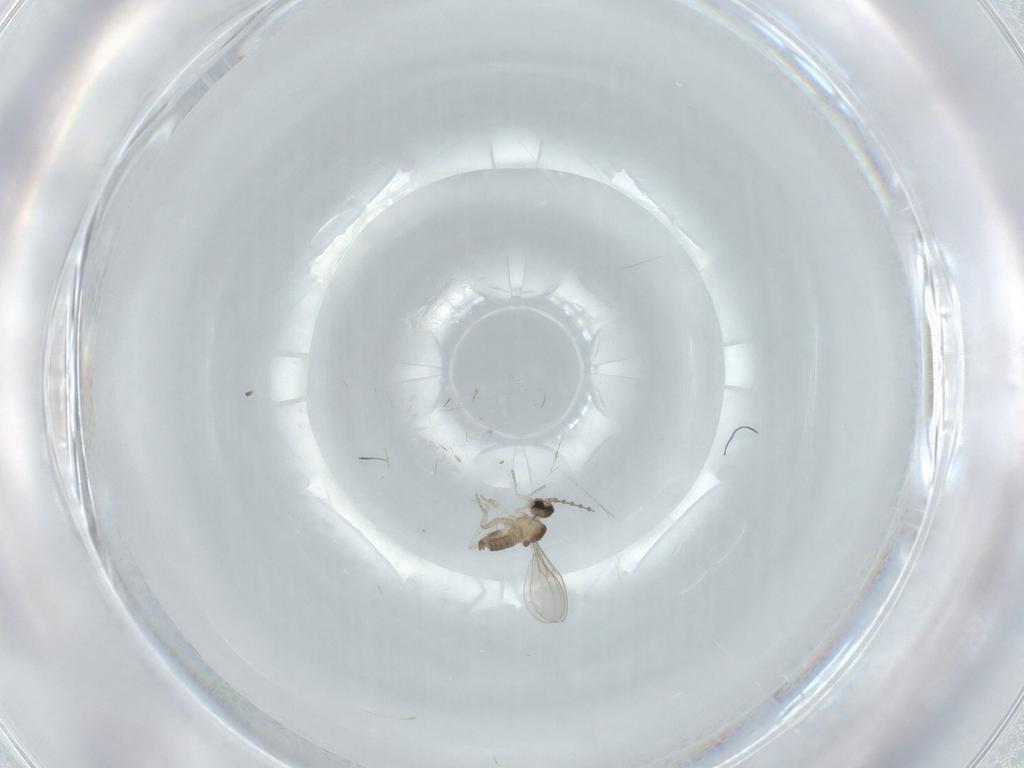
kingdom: Animalia
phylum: Arthropoda
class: Insecta
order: Diptera
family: Cecidomyiidae
